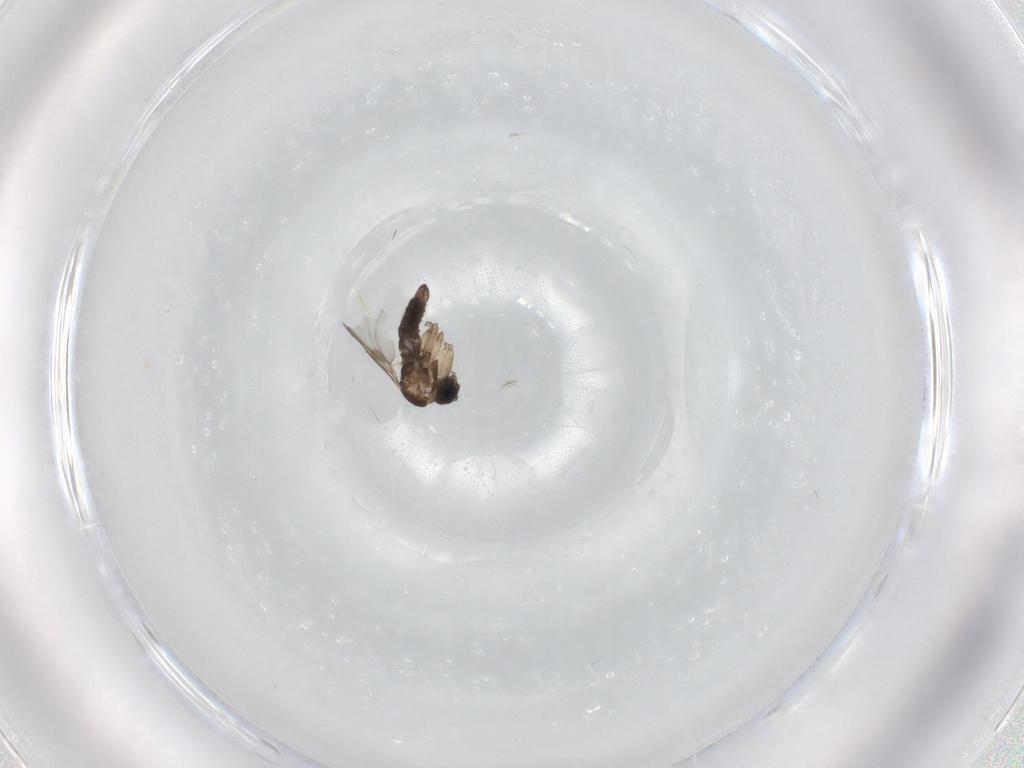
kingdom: Animalia
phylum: Arthropoda
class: Insecta
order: Diptera
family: Sciaridae
